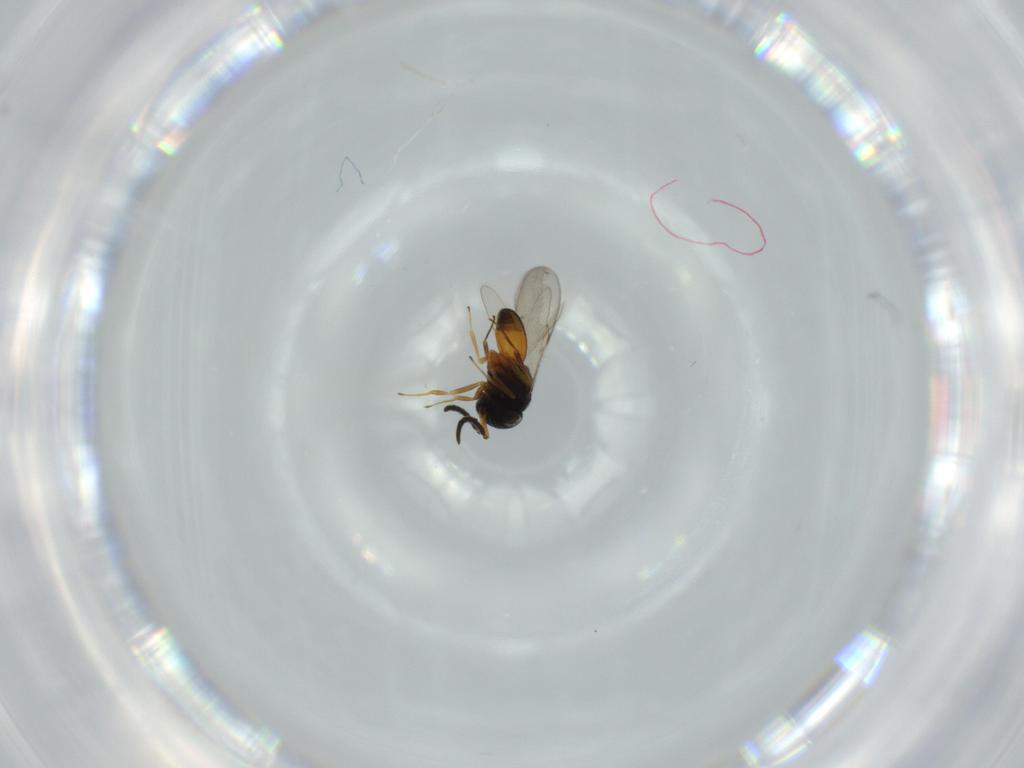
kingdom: Animalia
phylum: Arthropoda
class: Insecta
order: Hymenoptera
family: Scelionidae
